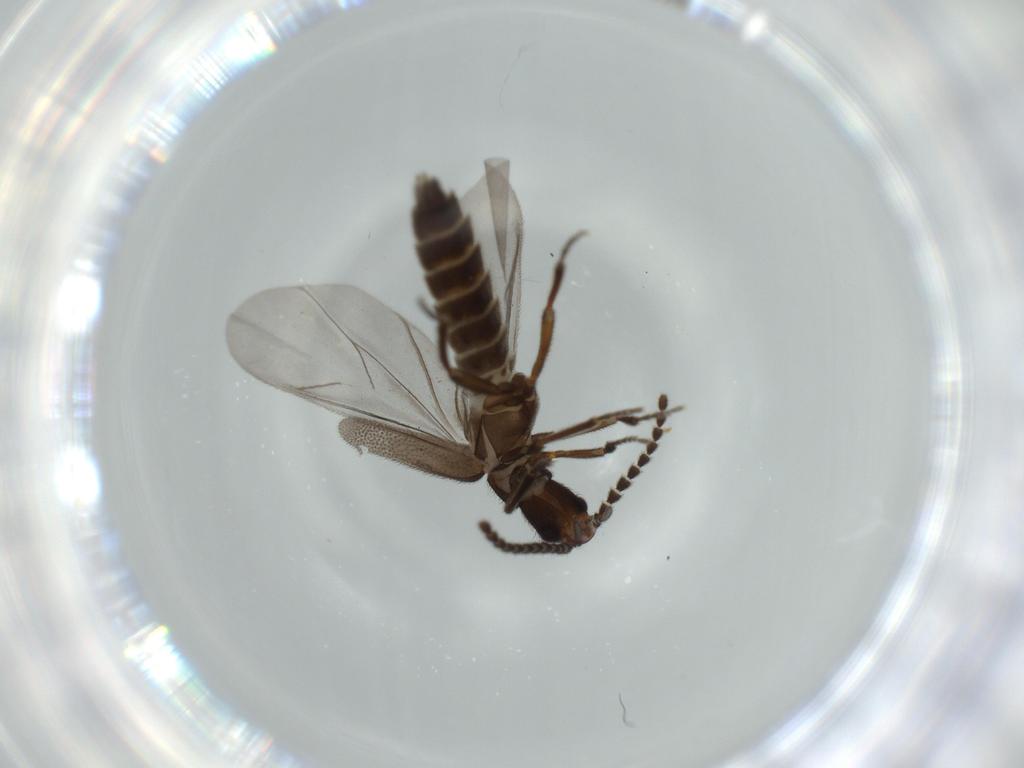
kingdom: Animalia
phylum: Arthropoda
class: Insecta
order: Coleoptera
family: Omethidae
